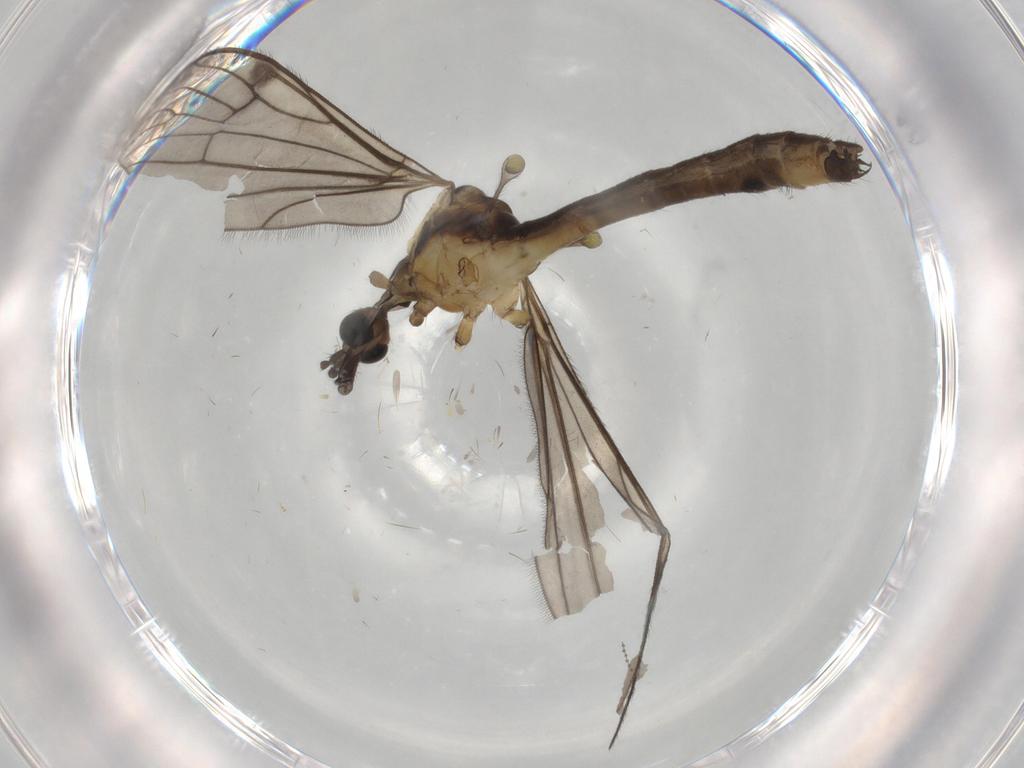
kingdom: Animalia
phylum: Arthropoda
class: Insecta
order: Diptera
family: Limoniidae
